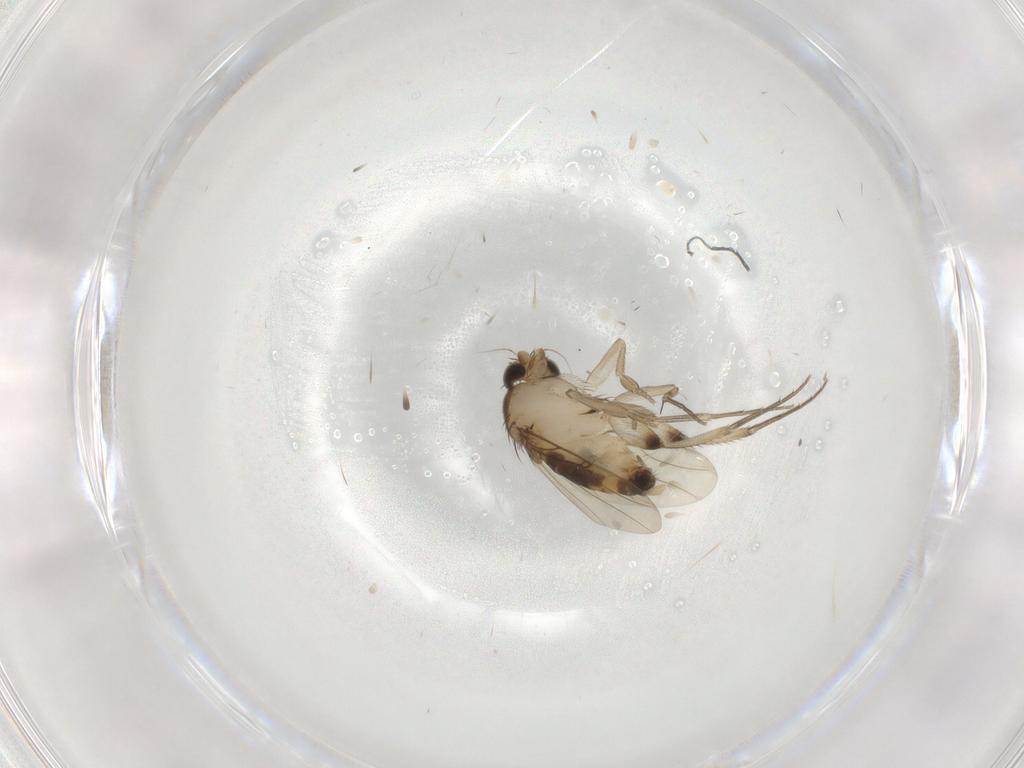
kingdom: Animalia
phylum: Arthropoda
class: Insecta
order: Diptera
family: Phoridae
